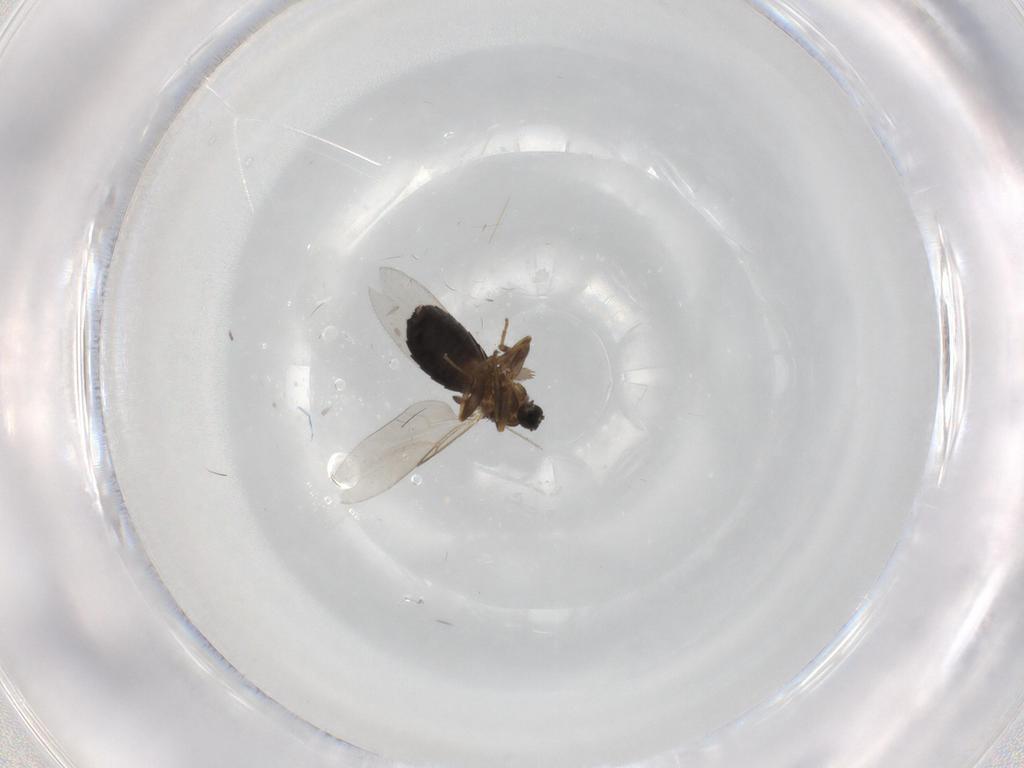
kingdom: Animalia
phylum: Arthropoda
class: Insecta
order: Diptera
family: Scatopsidae
